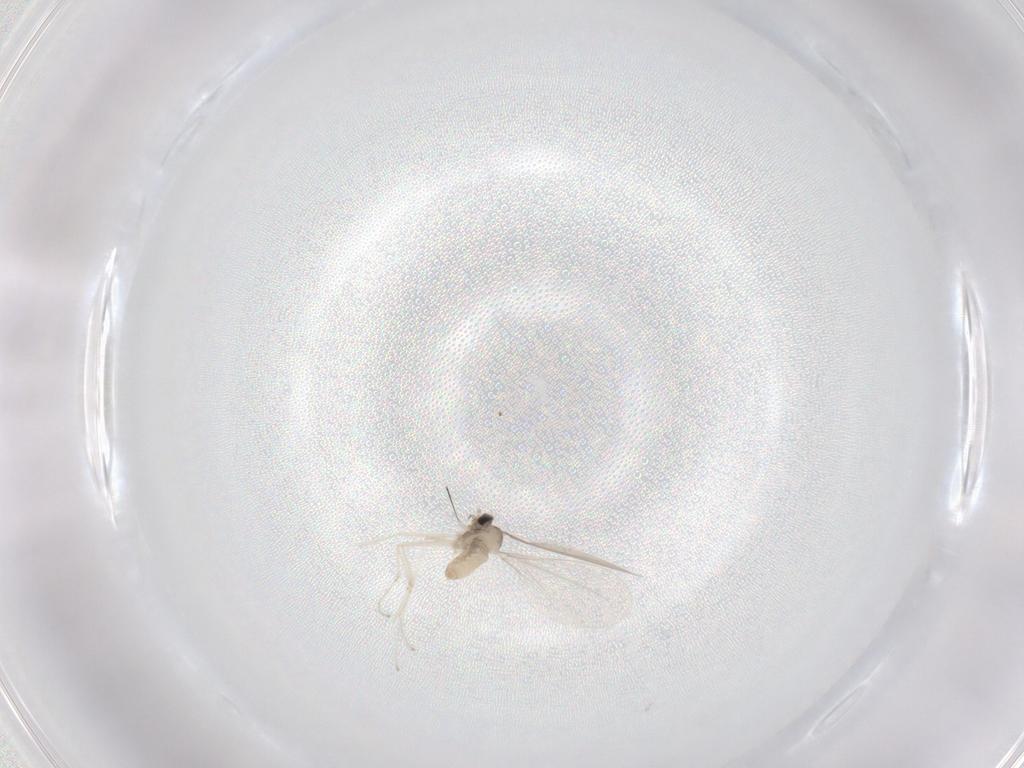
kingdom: Animalia
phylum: Arthropoda
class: Insecta
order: Diptera
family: Cecidomyiidae
